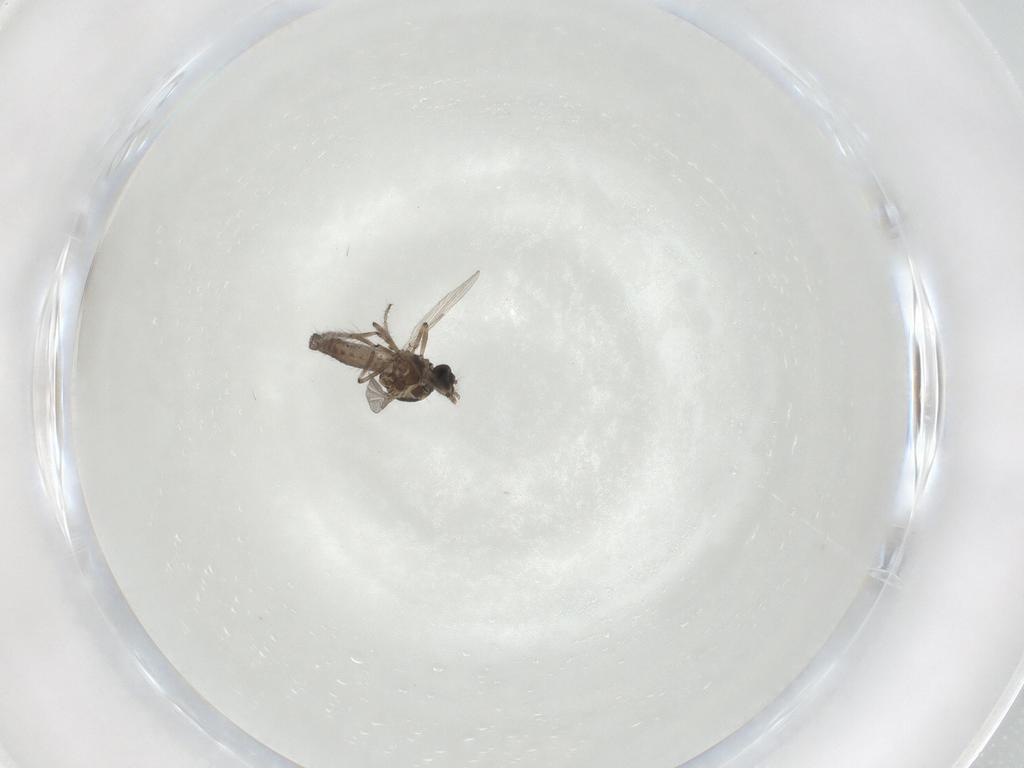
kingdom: Animalia
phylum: Arthropoda
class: Insecta
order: Diptera
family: Ceratopogonidae
